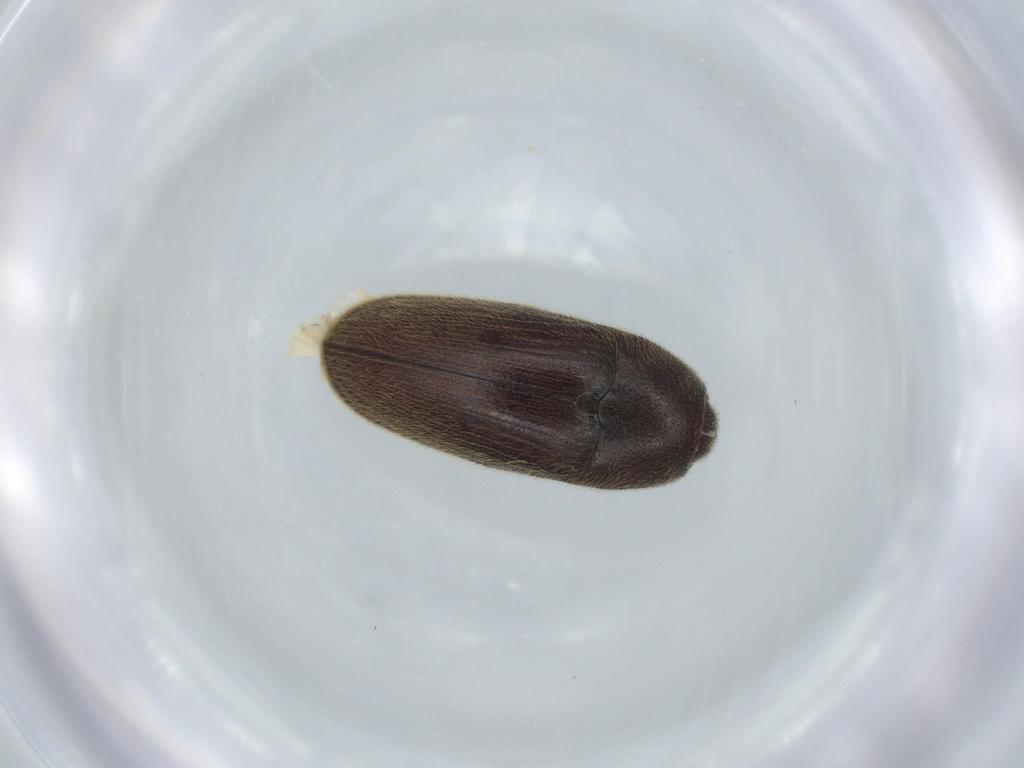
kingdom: Animalia
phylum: Arthropoda
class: Insecta
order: Coleoptera
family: Throscidae
